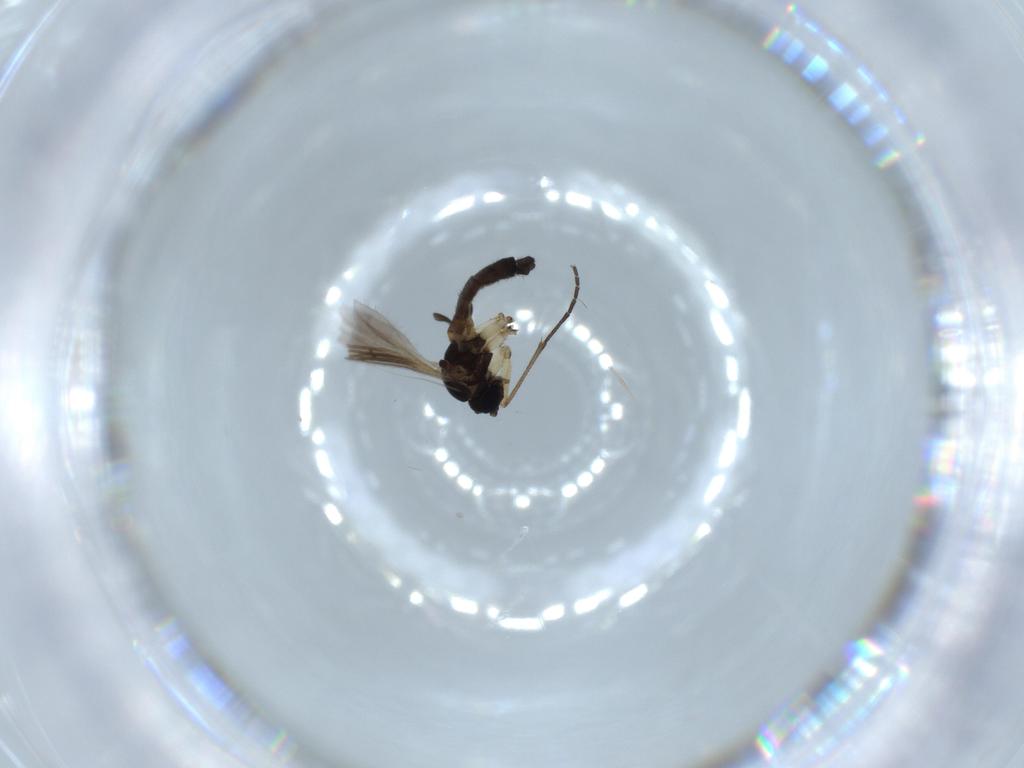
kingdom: Animalia
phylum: Arthropoda
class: Insecta
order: Diptera
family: Sciaridae
